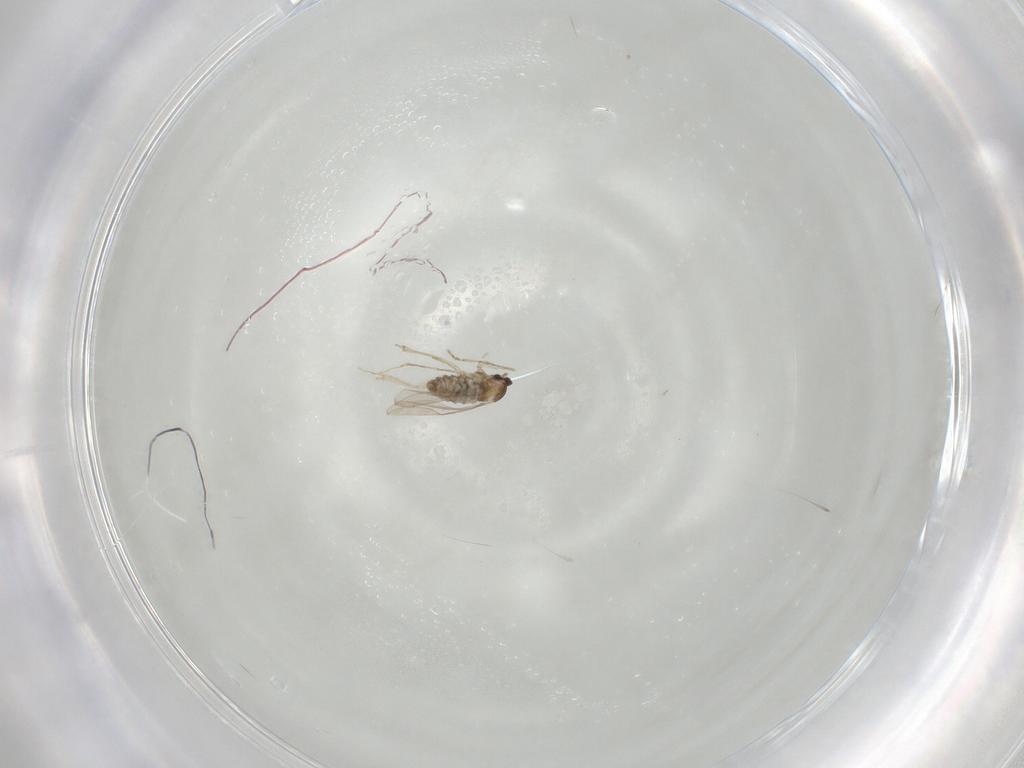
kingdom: Animalia
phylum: Arthropoda
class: Insecta
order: Diptera
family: Cecidomyiidae
